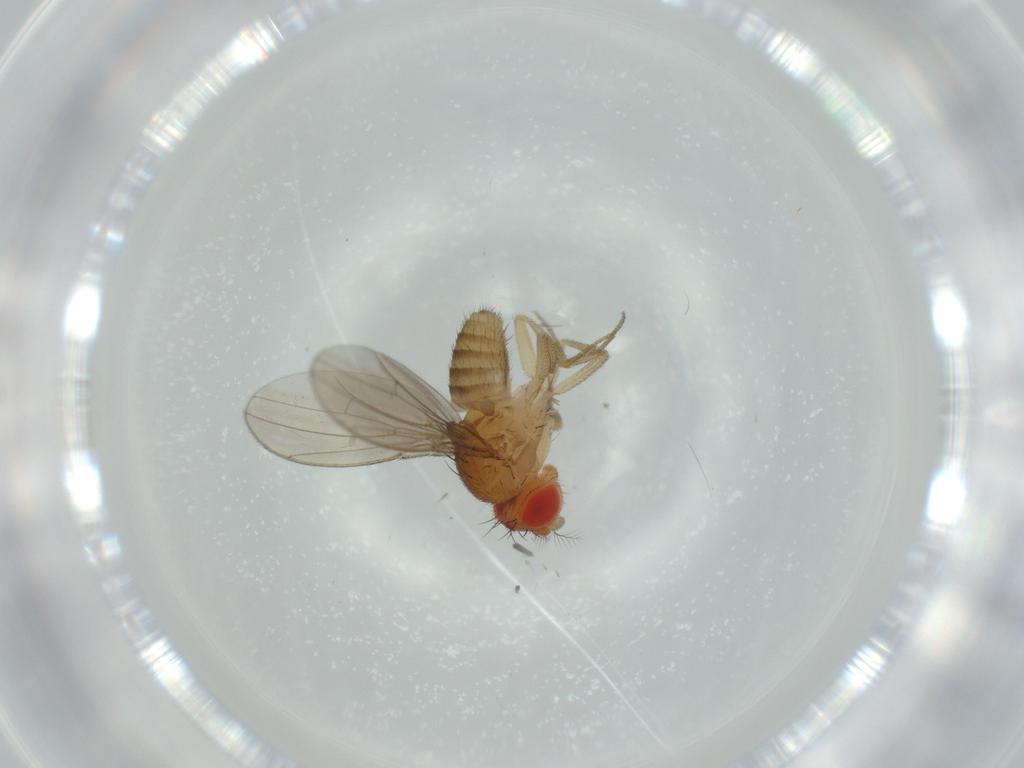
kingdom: Animalia
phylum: Arthropoda
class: Insecta
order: Diptera
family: Drosophilidae
